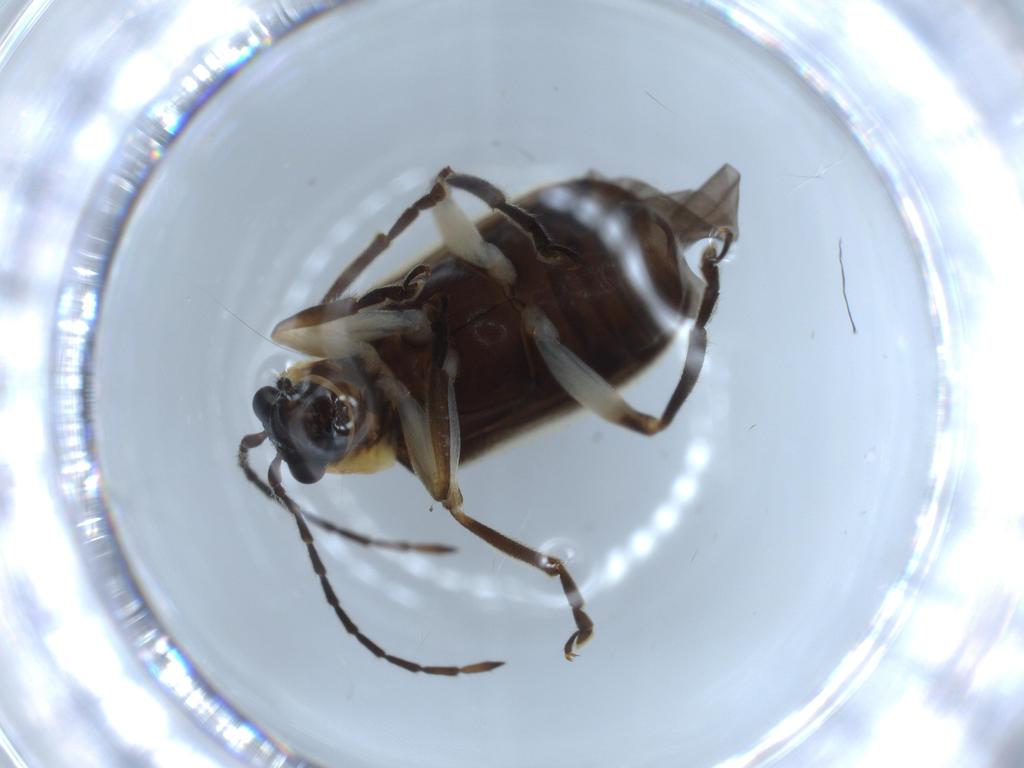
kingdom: Animalia
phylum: Arthropoda
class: Insecta
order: Coleoptera
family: Chrysomelidae
